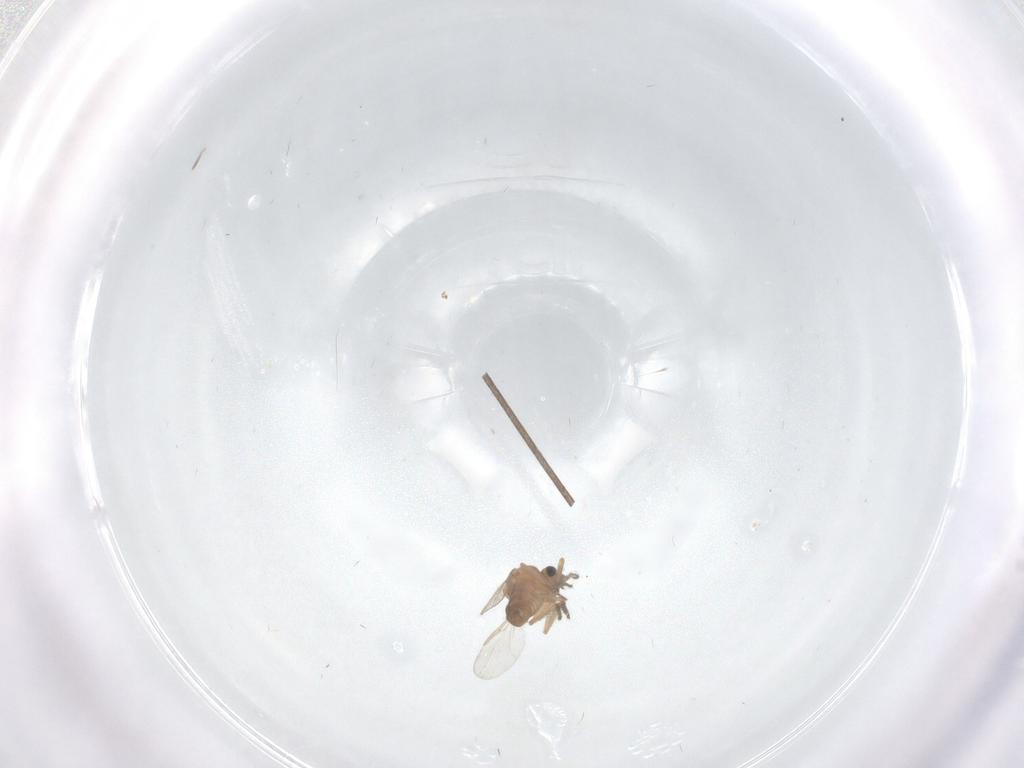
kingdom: Animalia
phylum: Arthropoda
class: Insecta
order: Diptera
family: Ceratopogonidae
